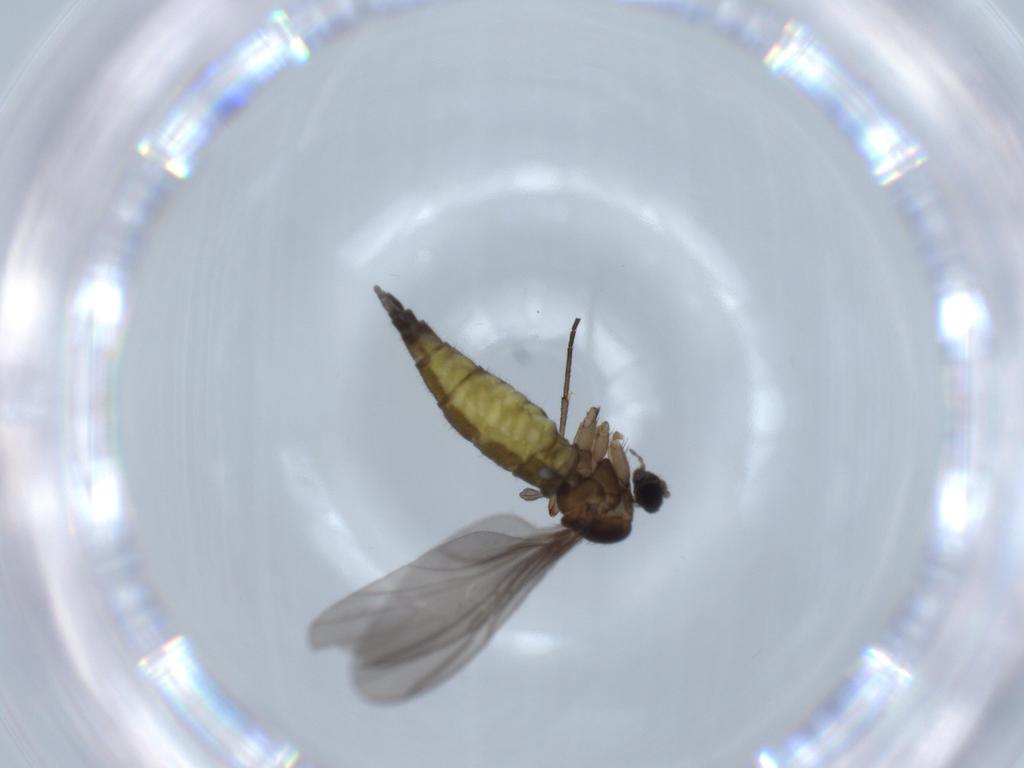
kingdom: Animalia
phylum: Arthropoda
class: Insecta
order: Diptera
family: Sciaridae
